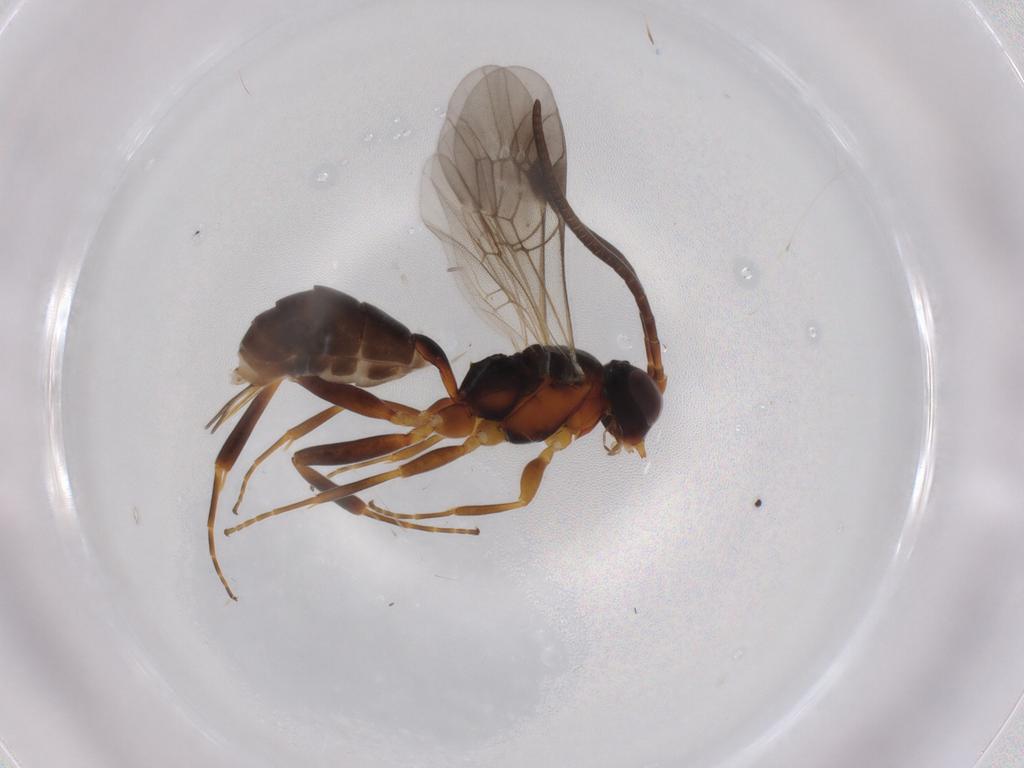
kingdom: Animalia
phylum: Arthropoda
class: Insecta
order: Hymenoptera
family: Ichneumonidae
